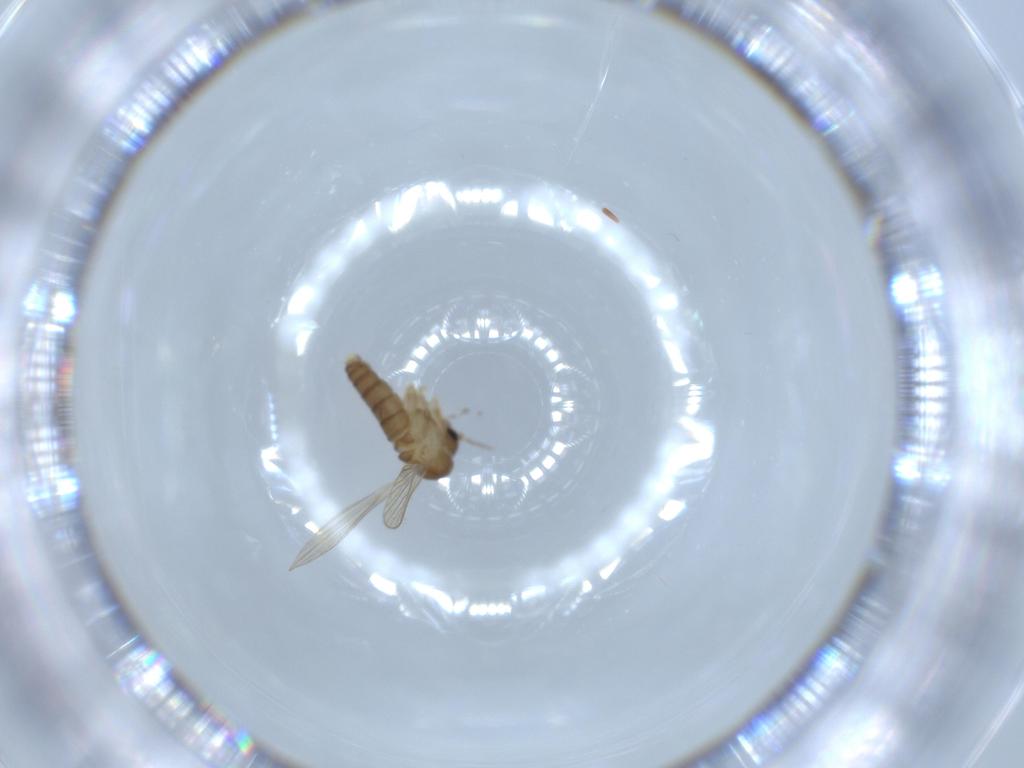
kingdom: Animalia
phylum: Arthropoda
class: Insecta
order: Diptera
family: Psychodidae
